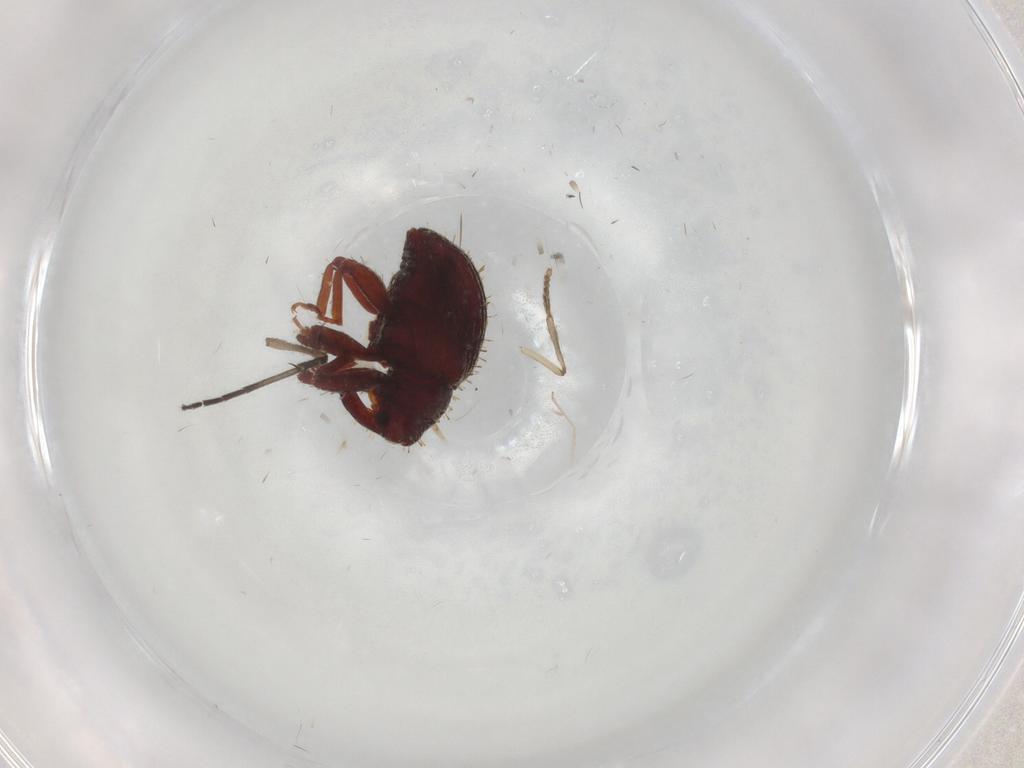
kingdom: Animalia
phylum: Arthropoda
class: Insecta
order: Coleoptera
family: Curculionidae
